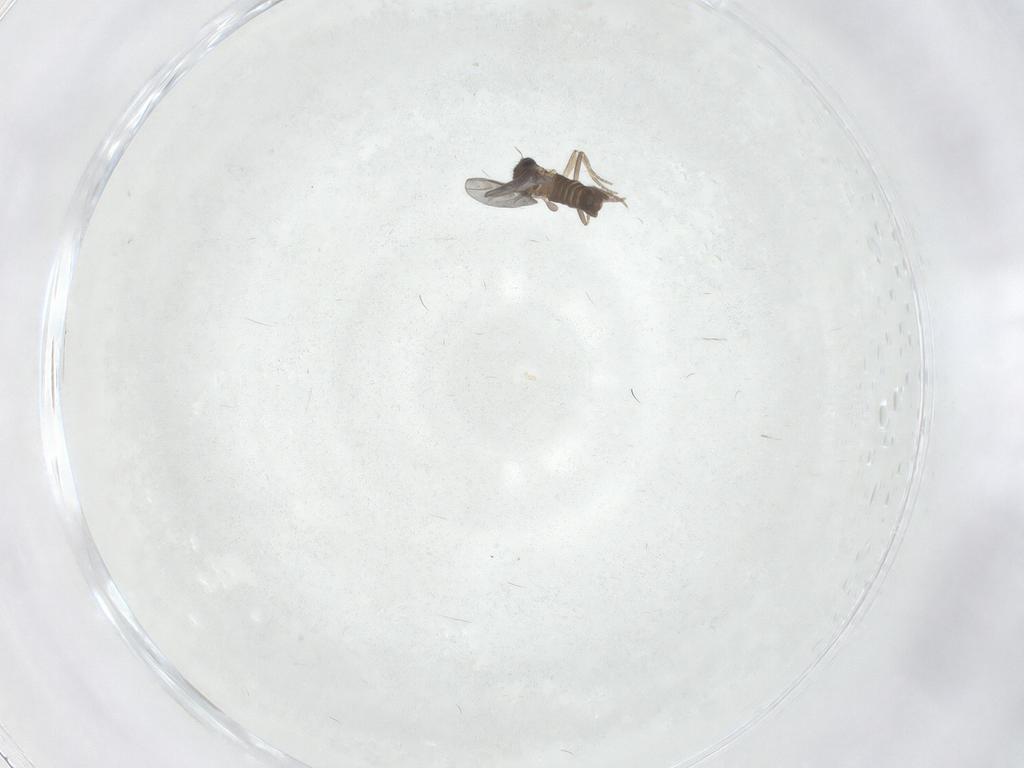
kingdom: Animalia
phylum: Arthropoda
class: Insecta
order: Diptera
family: Phoridae
